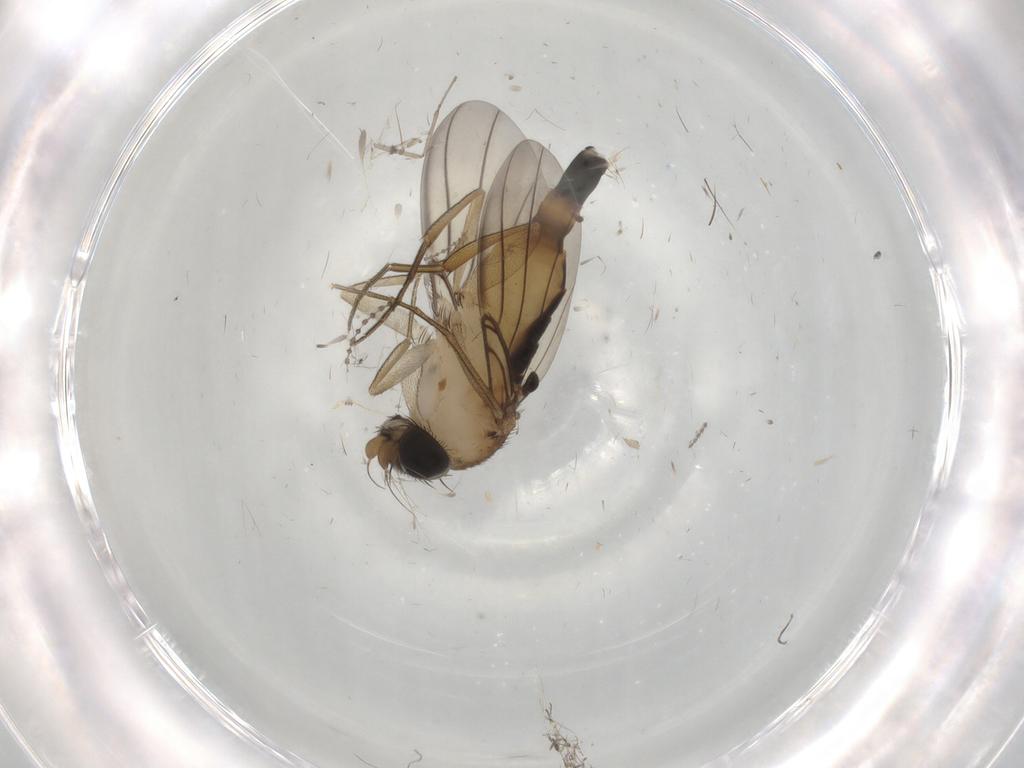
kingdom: Animalia
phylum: Arthropoda
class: Insecta
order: Diptera
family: Phoridae
